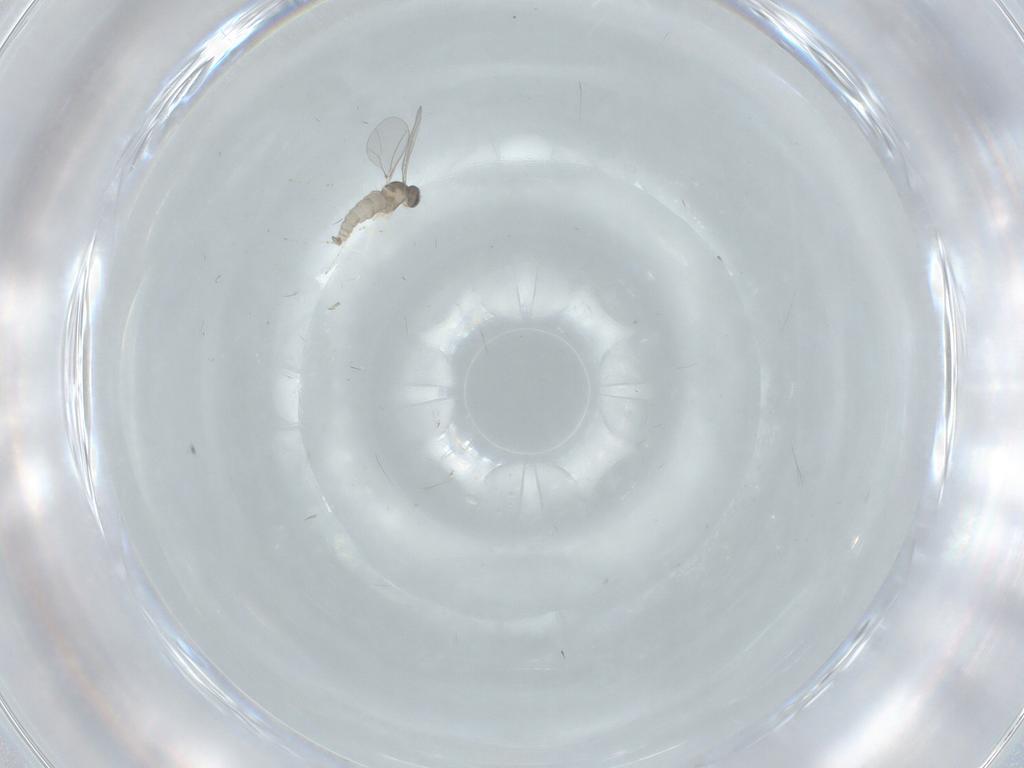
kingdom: Animalia
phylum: Arthropoda
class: Insecta
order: Diptera
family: Cecidomyiidae
